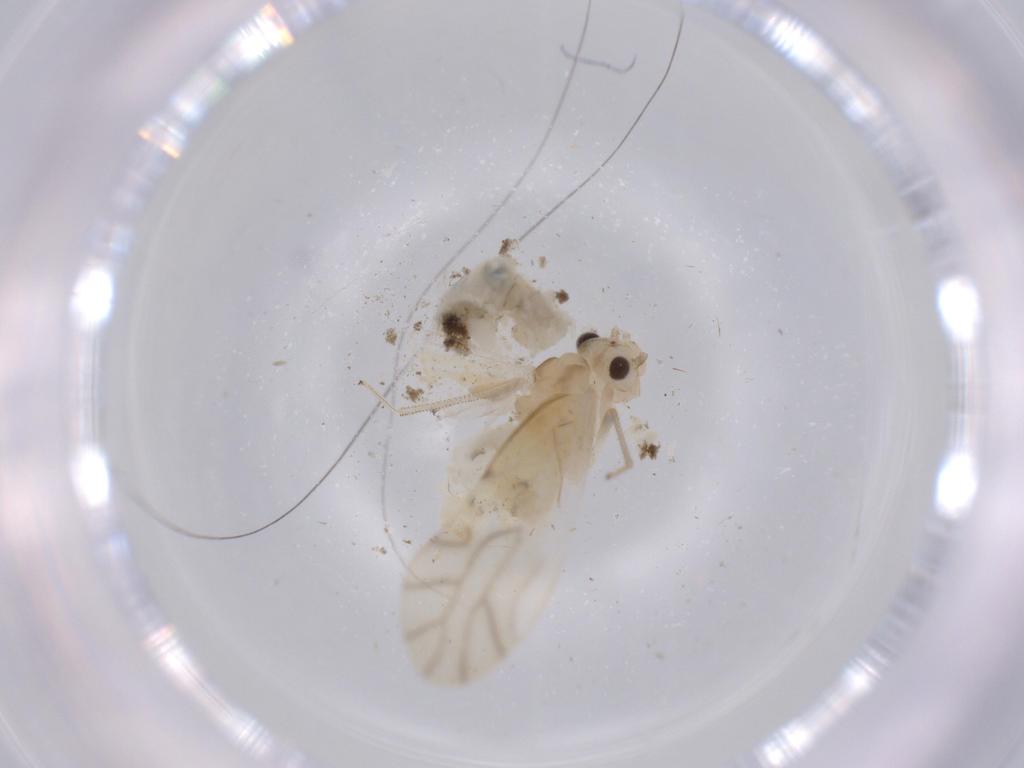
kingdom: Animalia
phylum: Arthropoda
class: Insecta
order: Psocodea
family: Caeciliusidae
